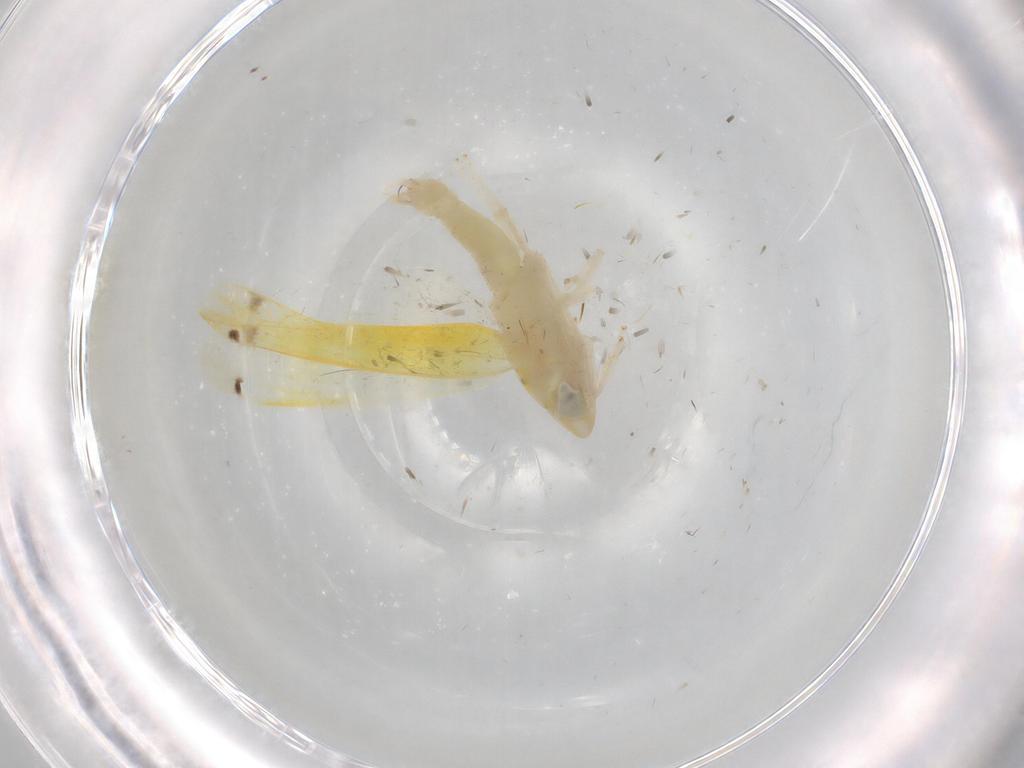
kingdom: Animalia
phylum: Arthropoda
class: Insecta
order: Hemiptera
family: Cicadellidae
